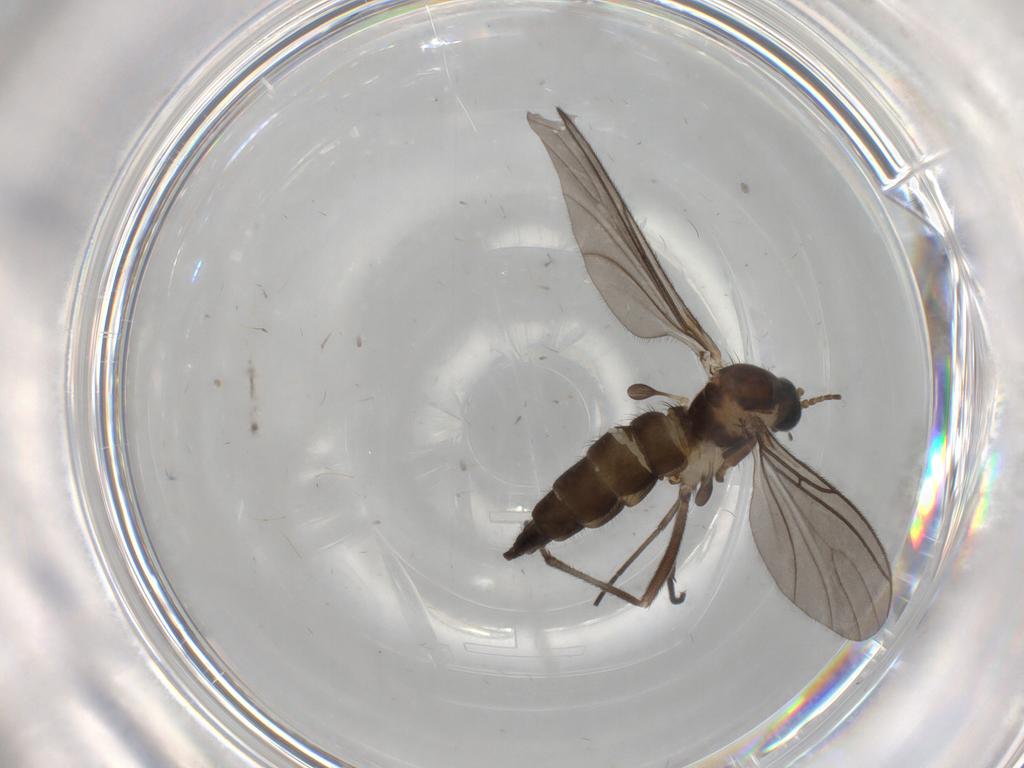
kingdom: Animalia
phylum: Arthropoda
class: Insecta
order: Diptera
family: Sciaridae
